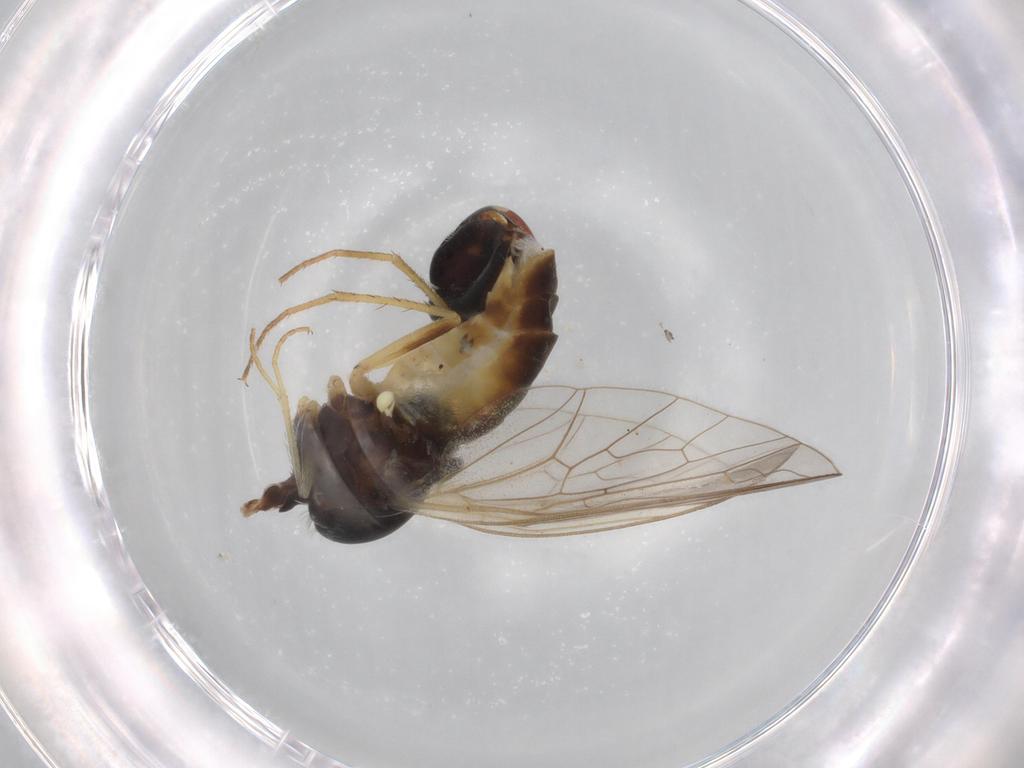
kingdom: Animalia
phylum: Arthropoda
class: Insecta
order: Diptera
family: Bombyliidae
